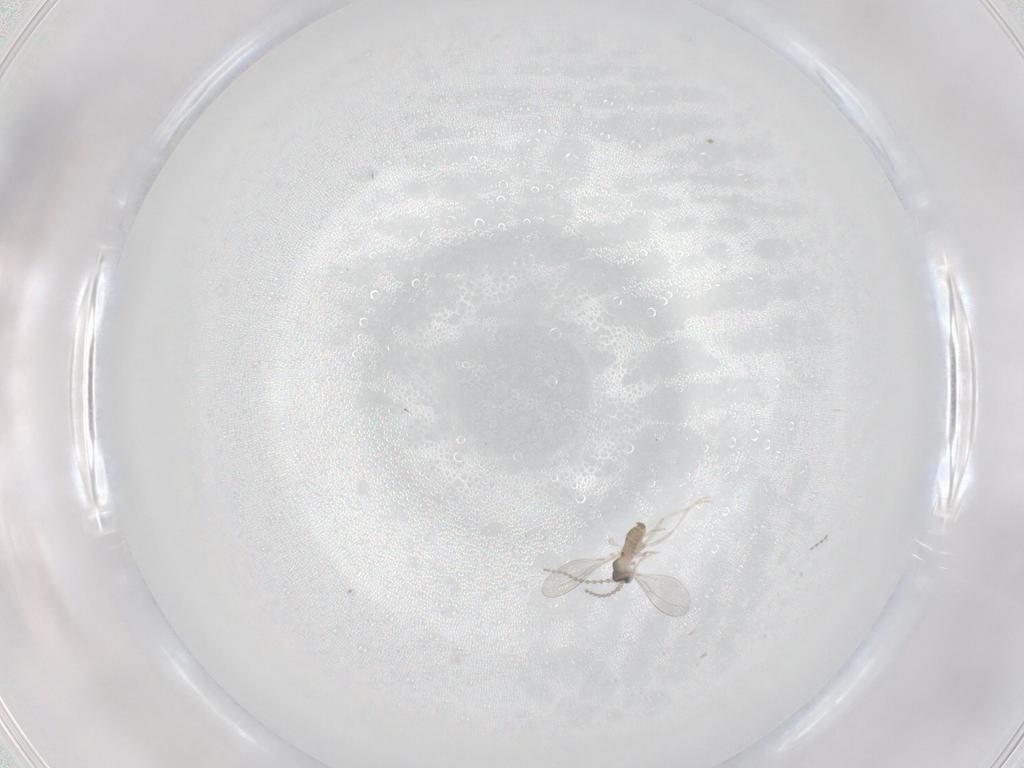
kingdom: Animalia
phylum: Arthropoda
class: Insecta
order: Diptera
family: Cecidomyiidae
